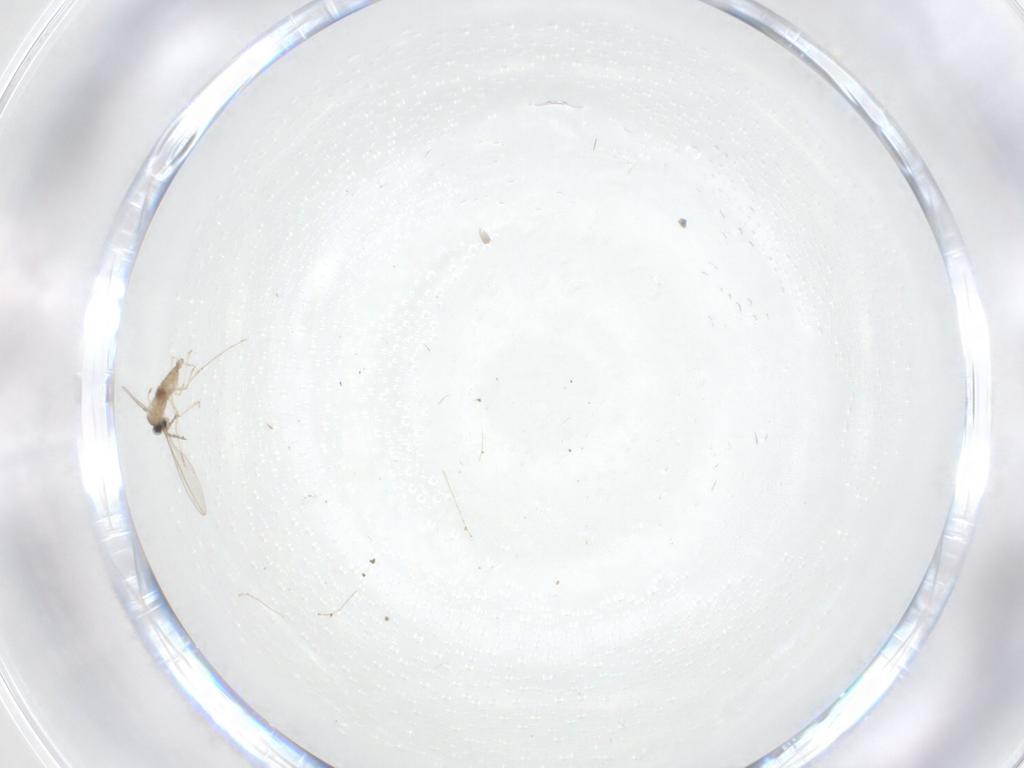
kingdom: Animalia
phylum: Arthropoda
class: Insecta
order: Diptera
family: Cecidomyiidae
